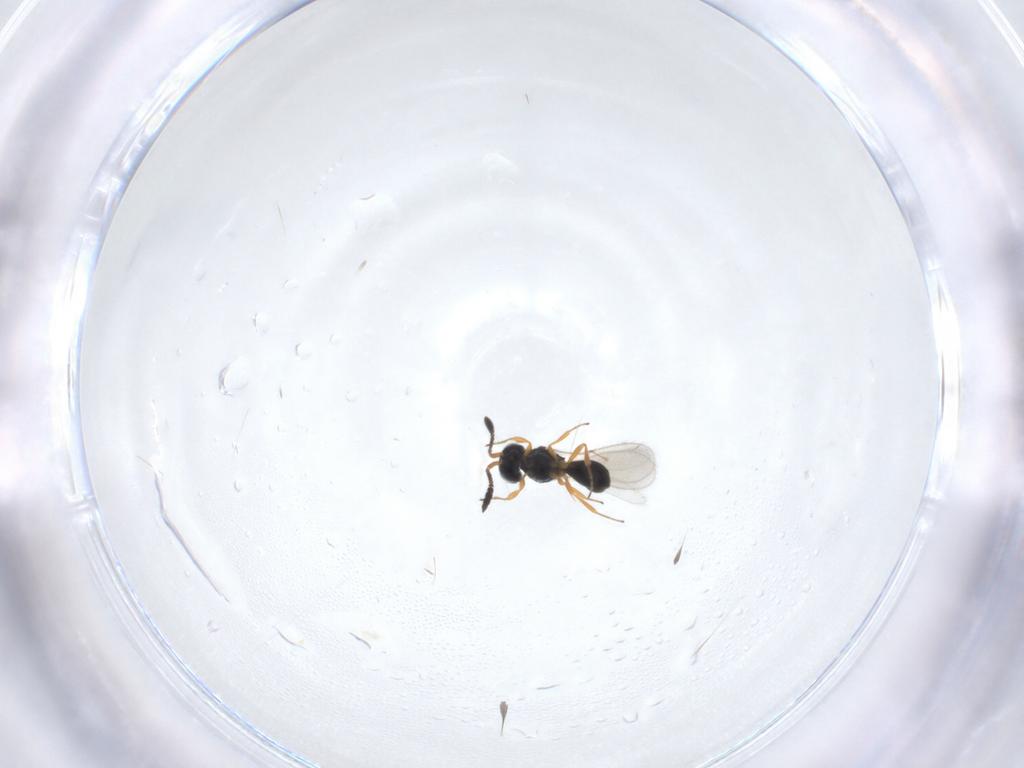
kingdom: Animalia
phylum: Arthropoda
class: Insecta
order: Hymenoptera
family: Scelionidae
